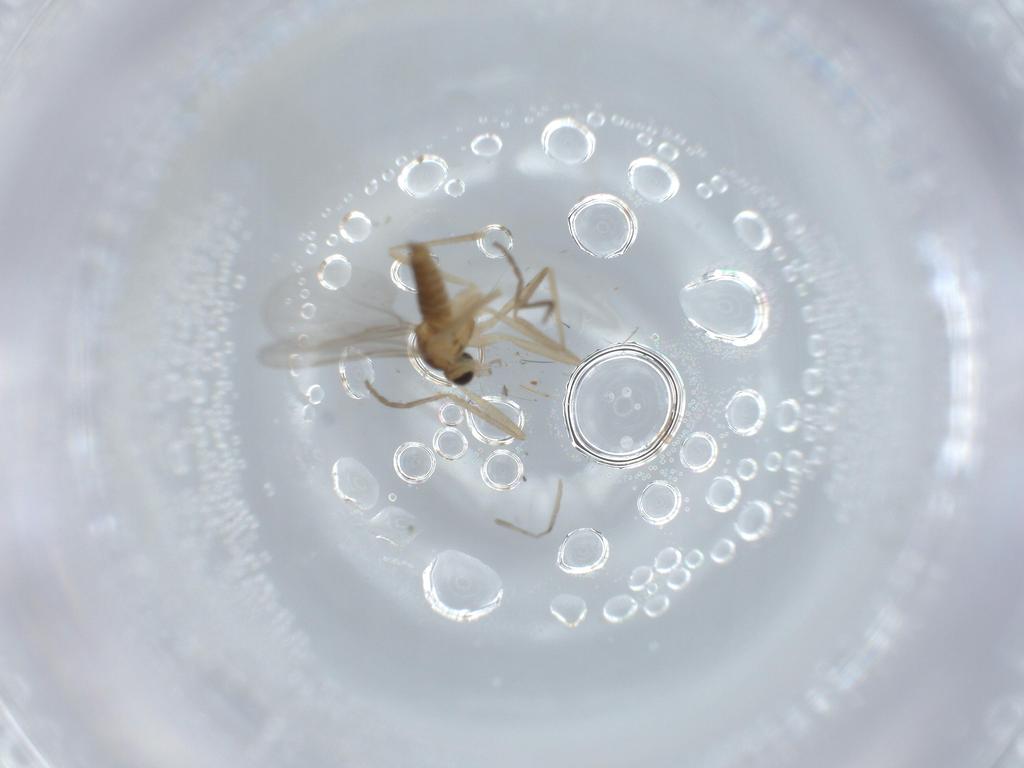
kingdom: Animalia
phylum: Arthropoda
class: Insecta
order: Diptera
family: Cecidomyiidae
